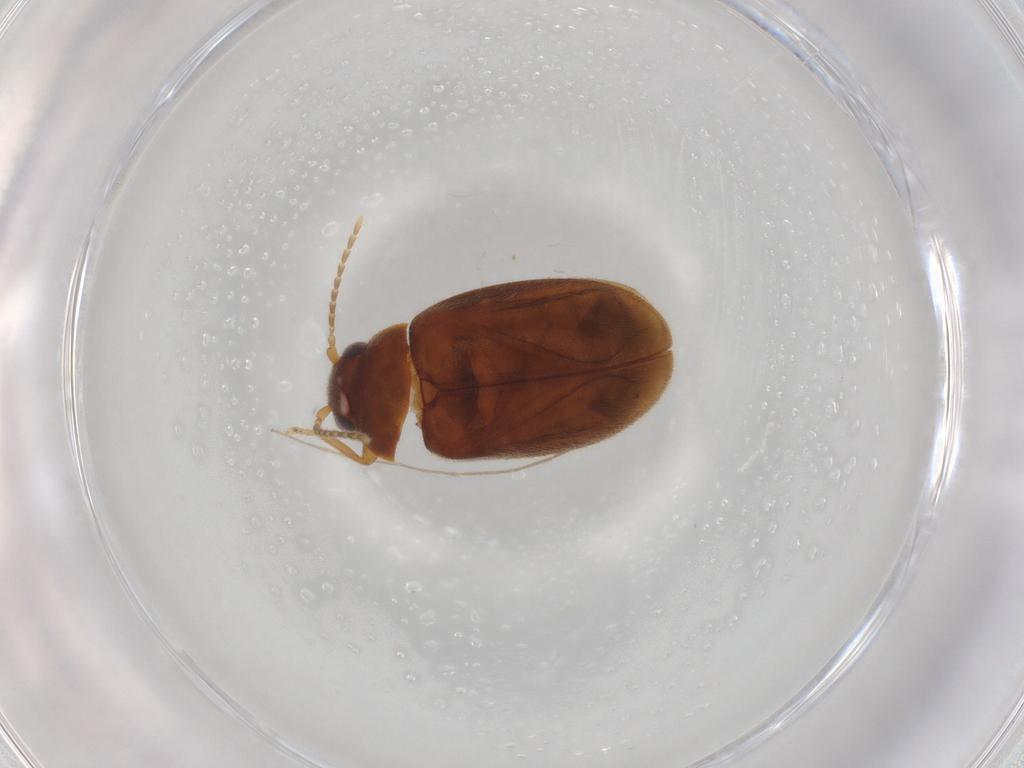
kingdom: Animalia
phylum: Arthropoda
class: Insecta
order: Coleoptera
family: Scirtidae
